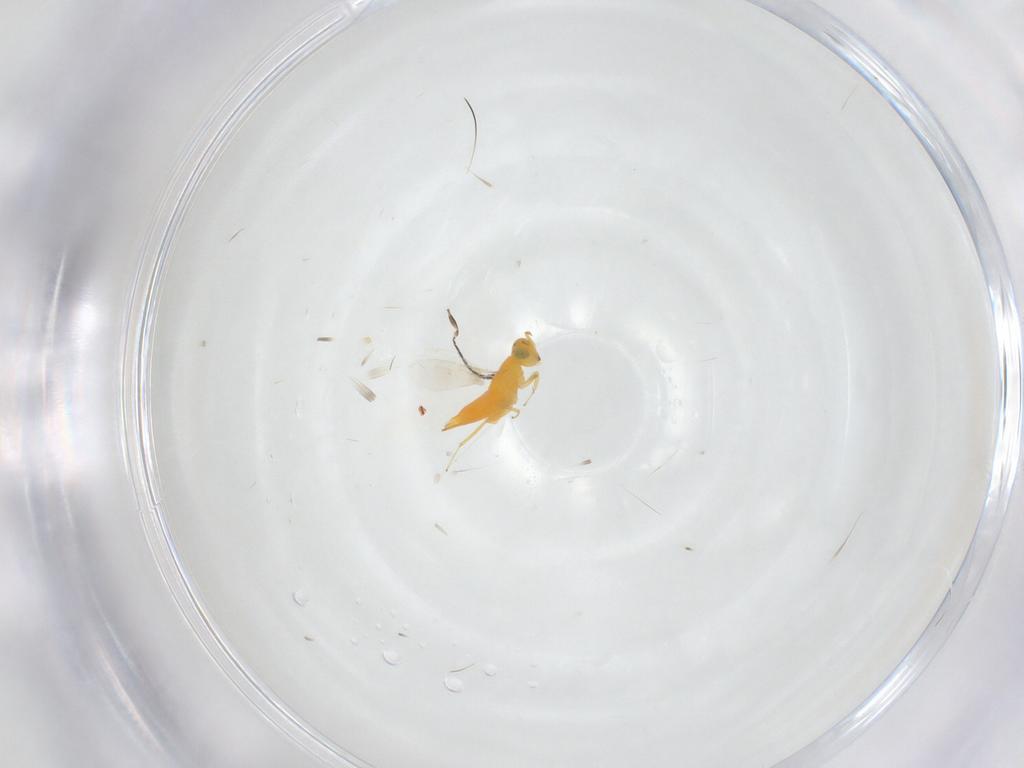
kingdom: Animalia
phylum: Arthropoda
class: Insecta
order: Hymenoptera
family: Aphelinidae
